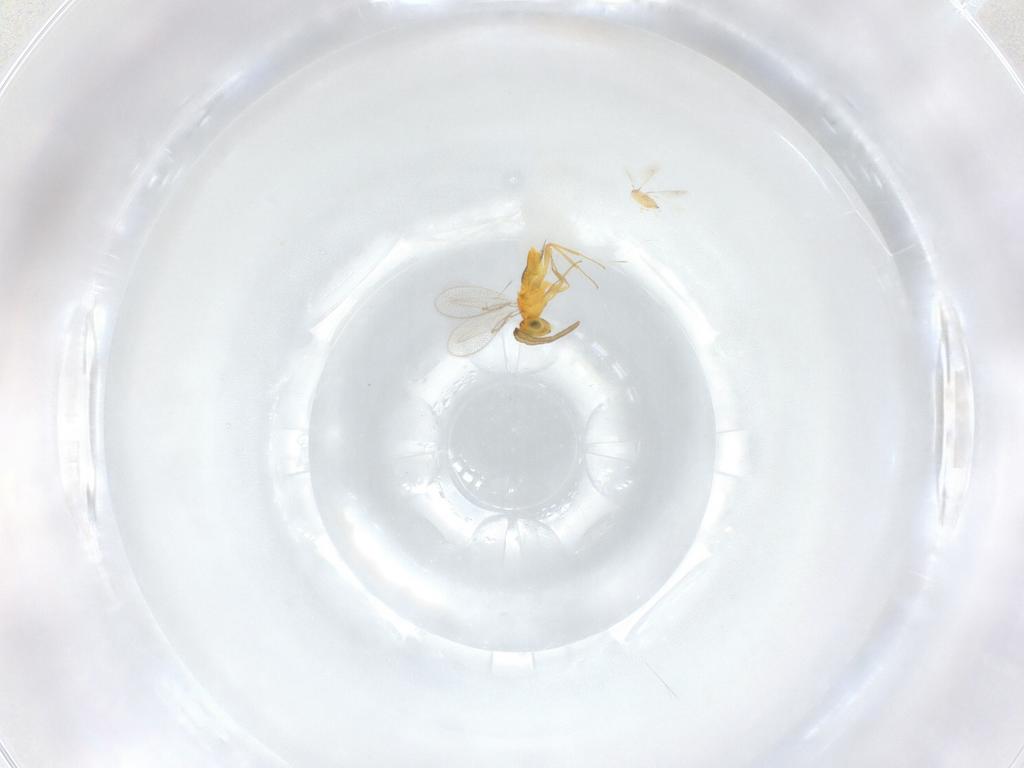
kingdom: Animalia
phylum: Arthropoda
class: Insecta
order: Hymenoptera
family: Aphelinidae
